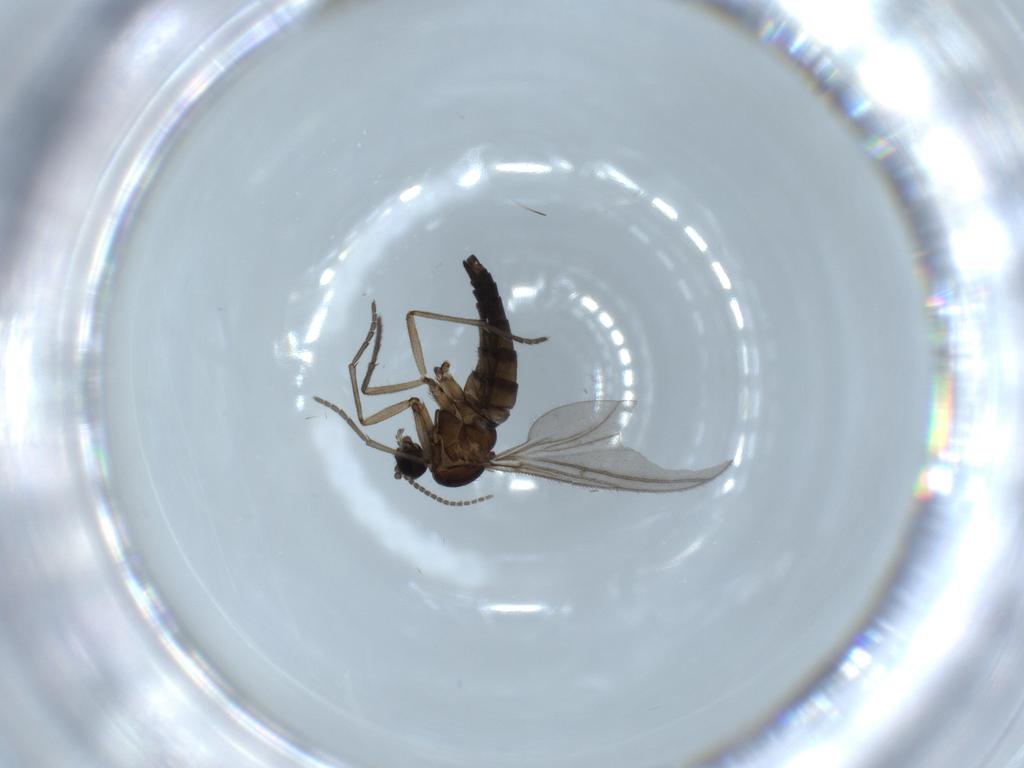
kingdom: Animalia
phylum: Arthropoda
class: Insecta
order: Diptera
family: Sciaridae
